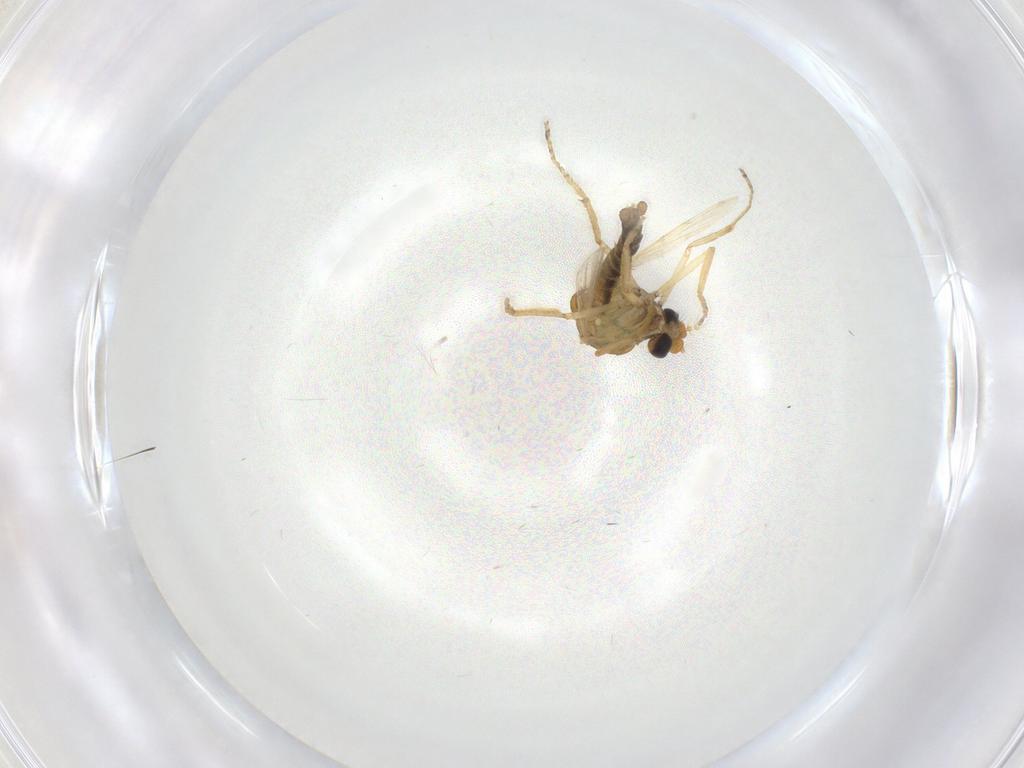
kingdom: Animalia
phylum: Arthropoda
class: Insecta
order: Diptera
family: Ceratopogonidae
